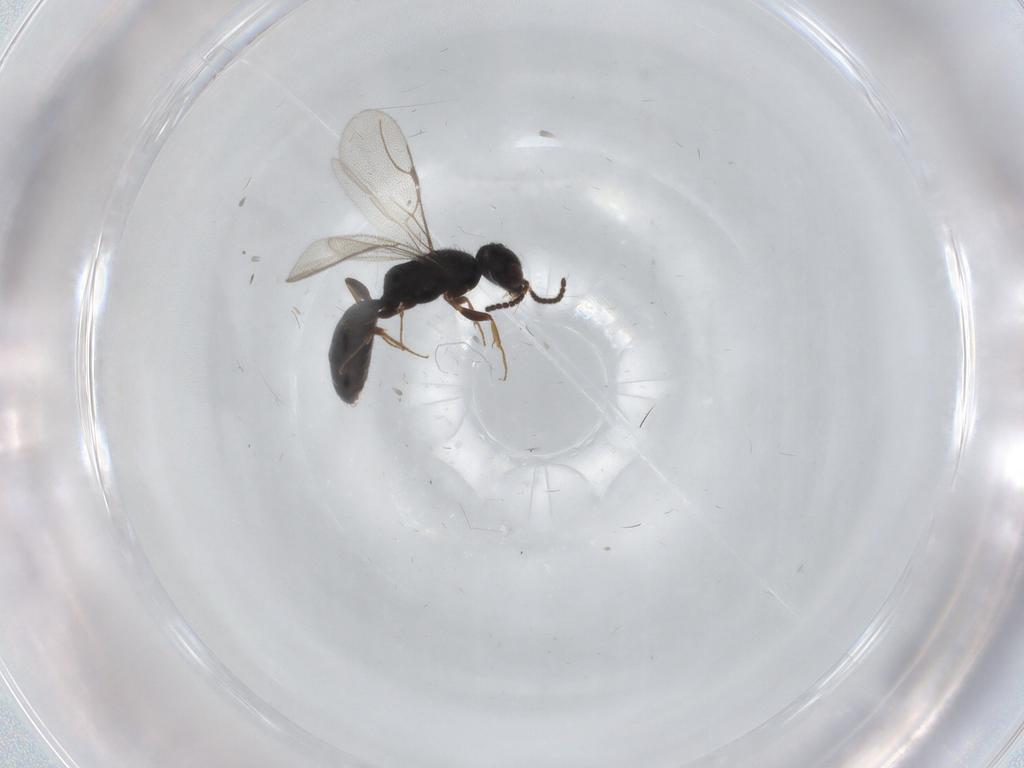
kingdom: Animalia
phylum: Arthropoda
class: Insecta
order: Hymenoptera
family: Bethylidae
